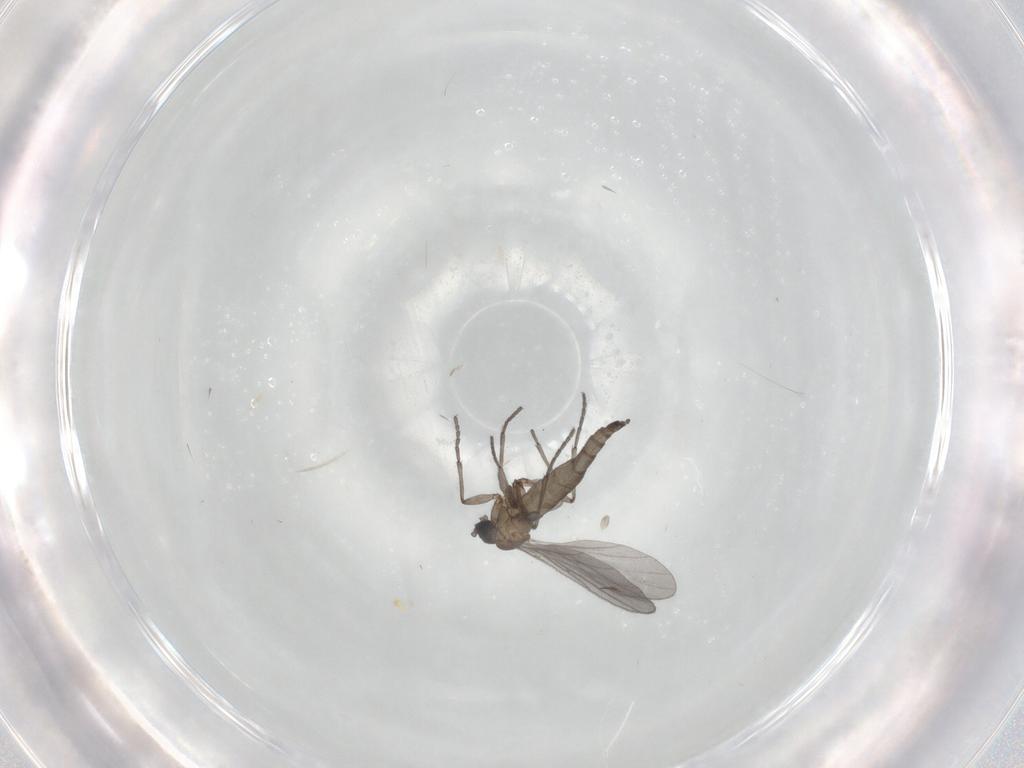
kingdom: Animalia
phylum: Arthropoda
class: Insecta
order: Diptera
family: Sciaridae
